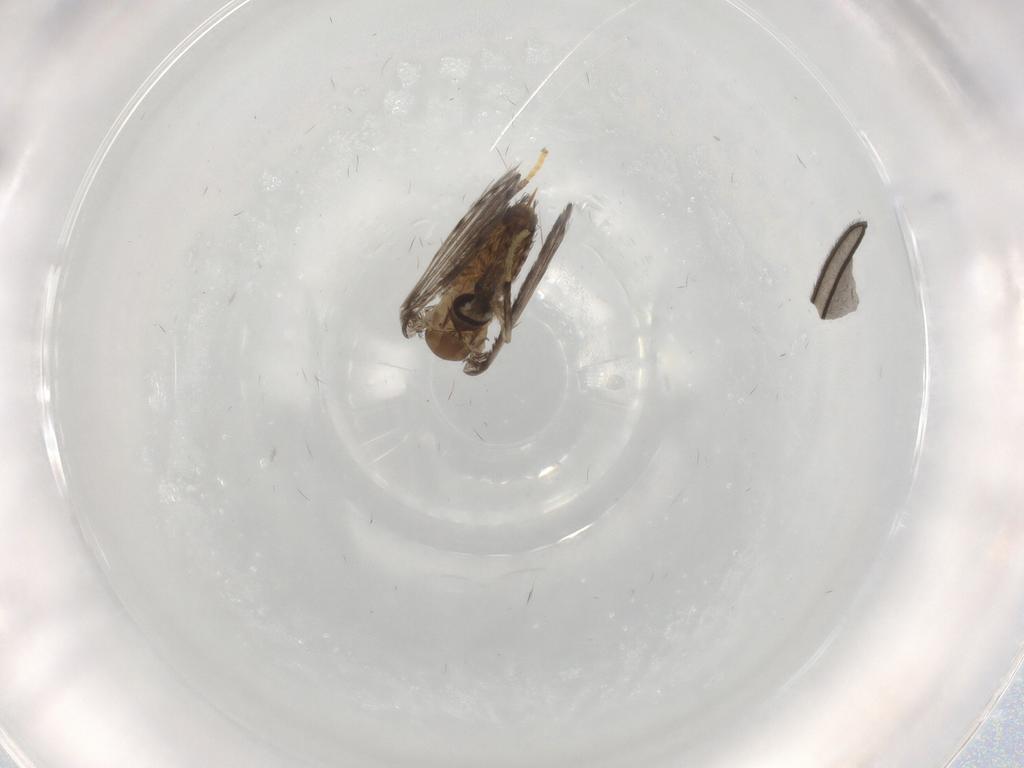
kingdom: Animalia
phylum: Arthropoda
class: Insecta
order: Diptera
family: Sciaridae
